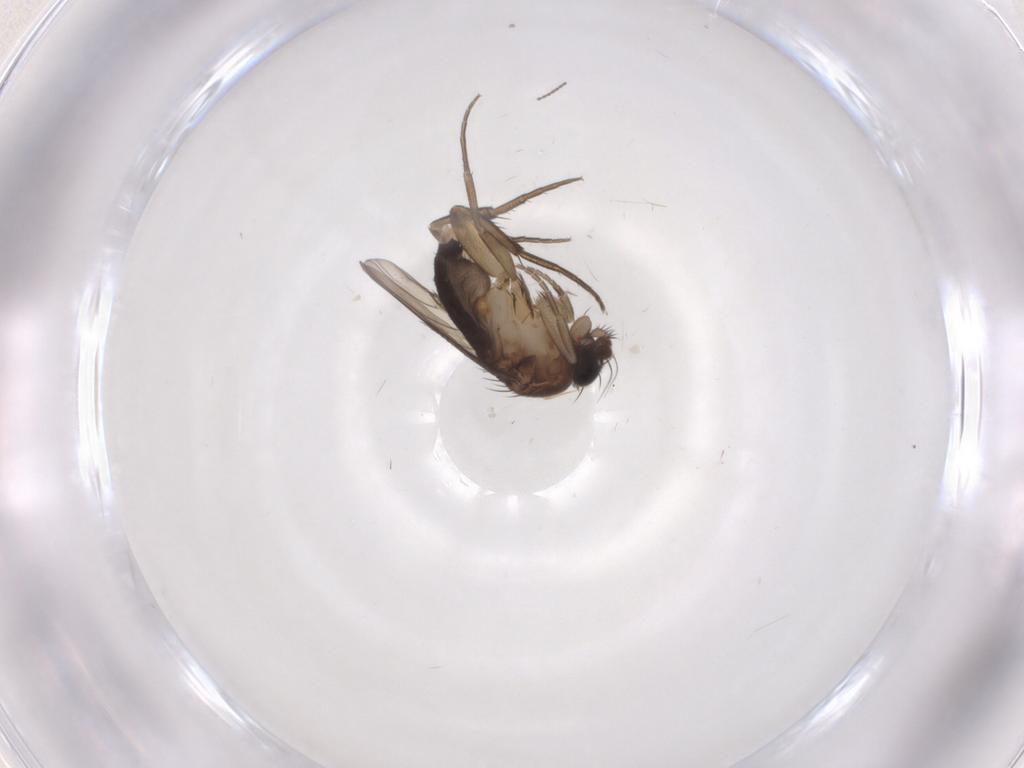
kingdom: Animalia
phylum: Arthropoda
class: Insecta
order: Diptera
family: Phoridae
